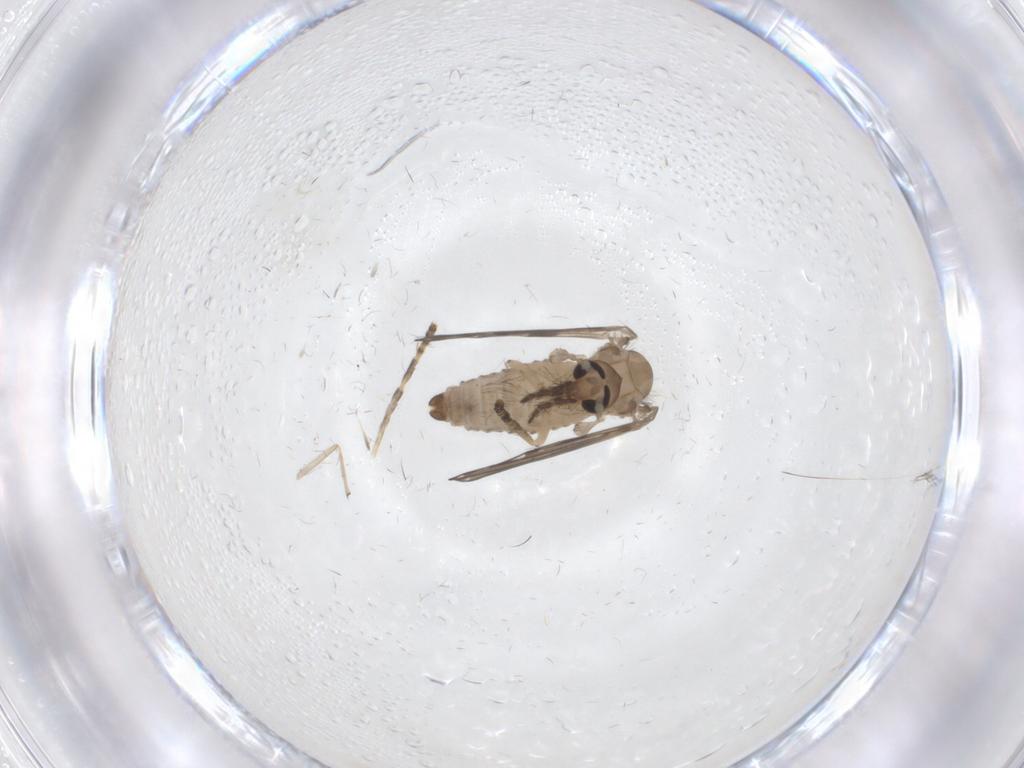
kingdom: Animalia
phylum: Arthropoda
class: Insecta
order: Diptera
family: Psychodidae
